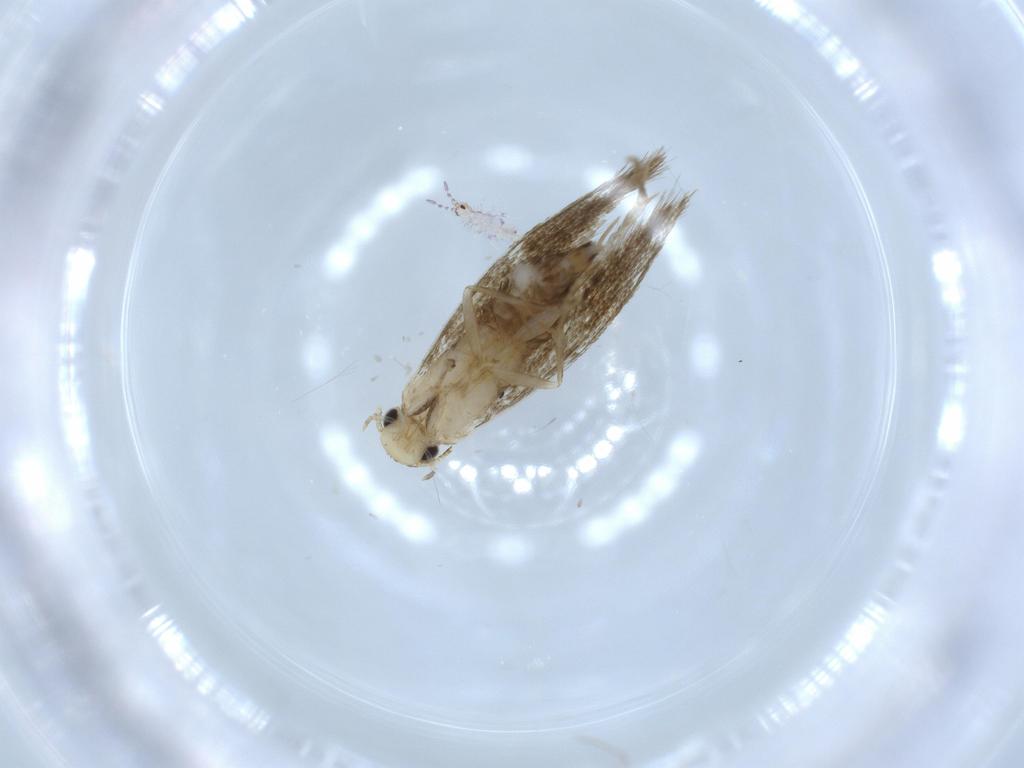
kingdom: Animalia
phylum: Arthropoda
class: Insecta
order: Lepidoptera
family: Tineidae
